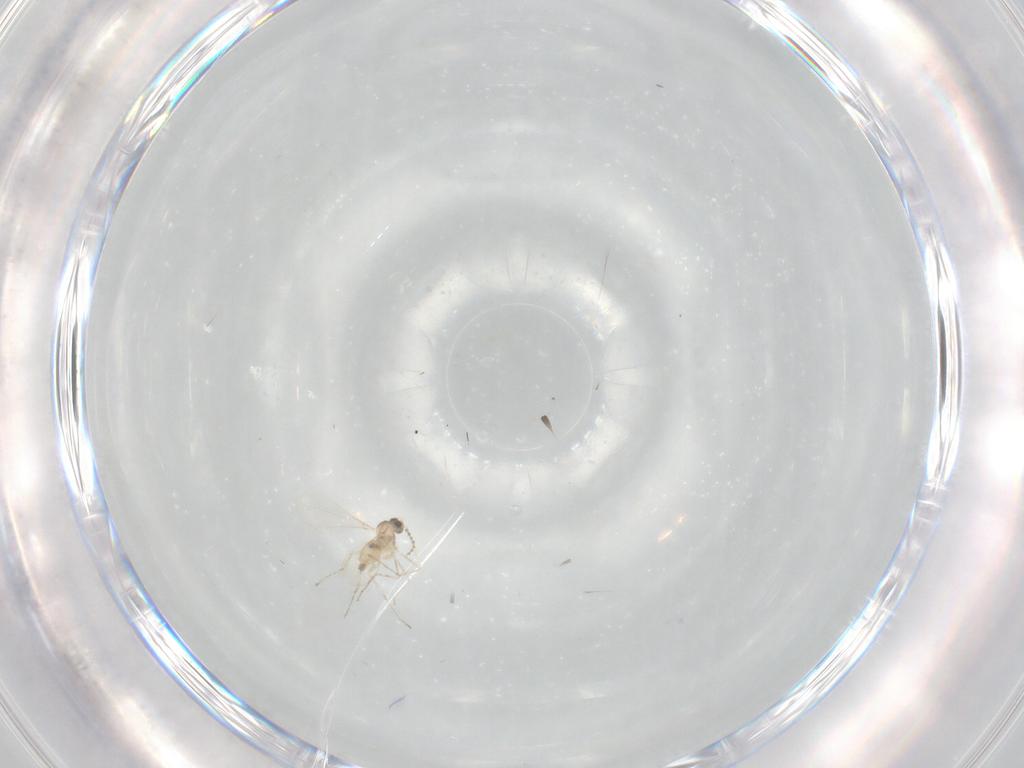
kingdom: Animalia
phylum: Arthropoda
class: Insecta
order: Diptera
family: Cecidomyiidae
